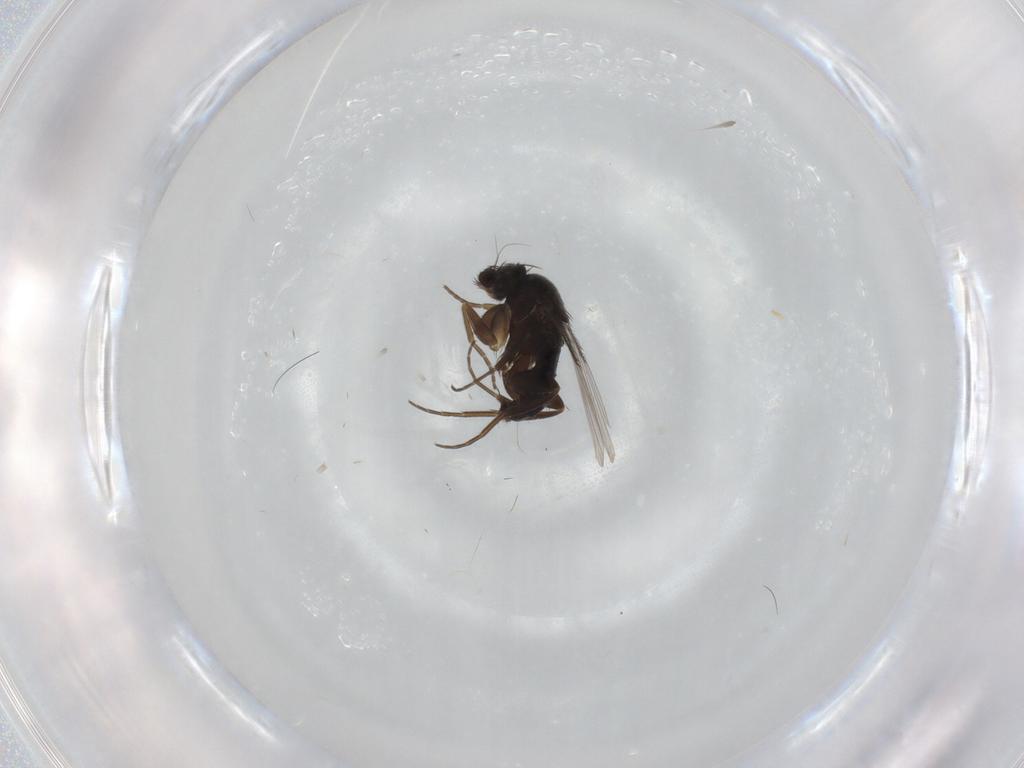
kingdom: Animalia
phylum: Arthropoda
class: Insecta
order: Diptera
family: Phoridae
